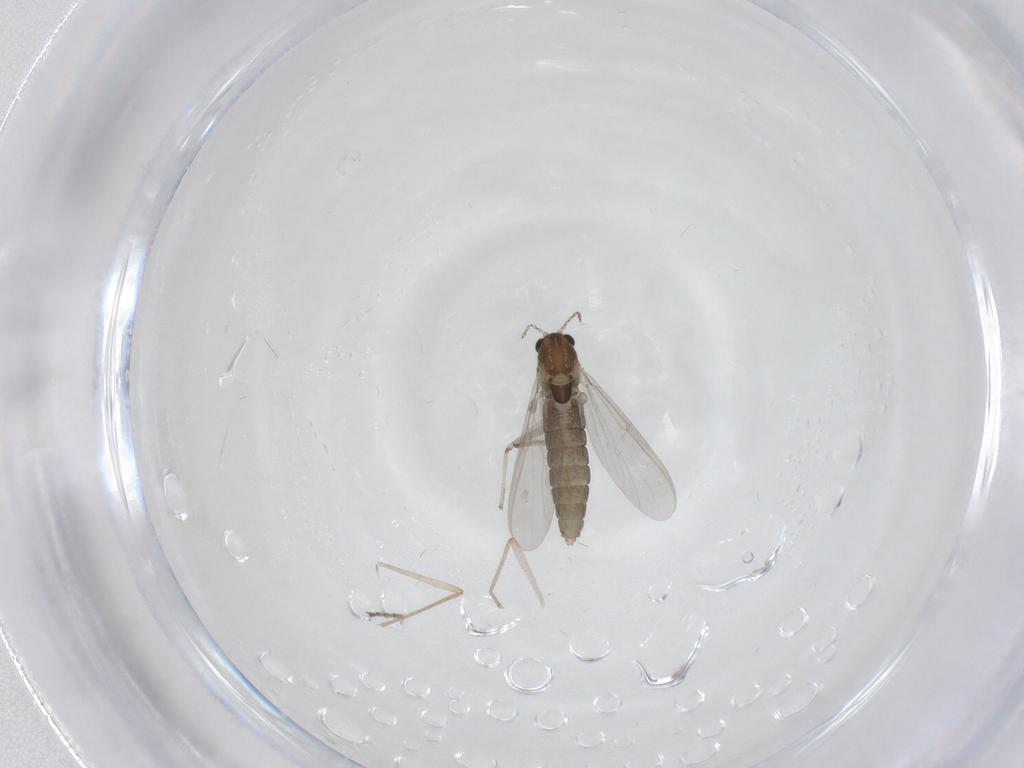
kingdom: Animalia
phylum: Arthropoda
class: Insecta
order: Diptera
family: Chironomidae
